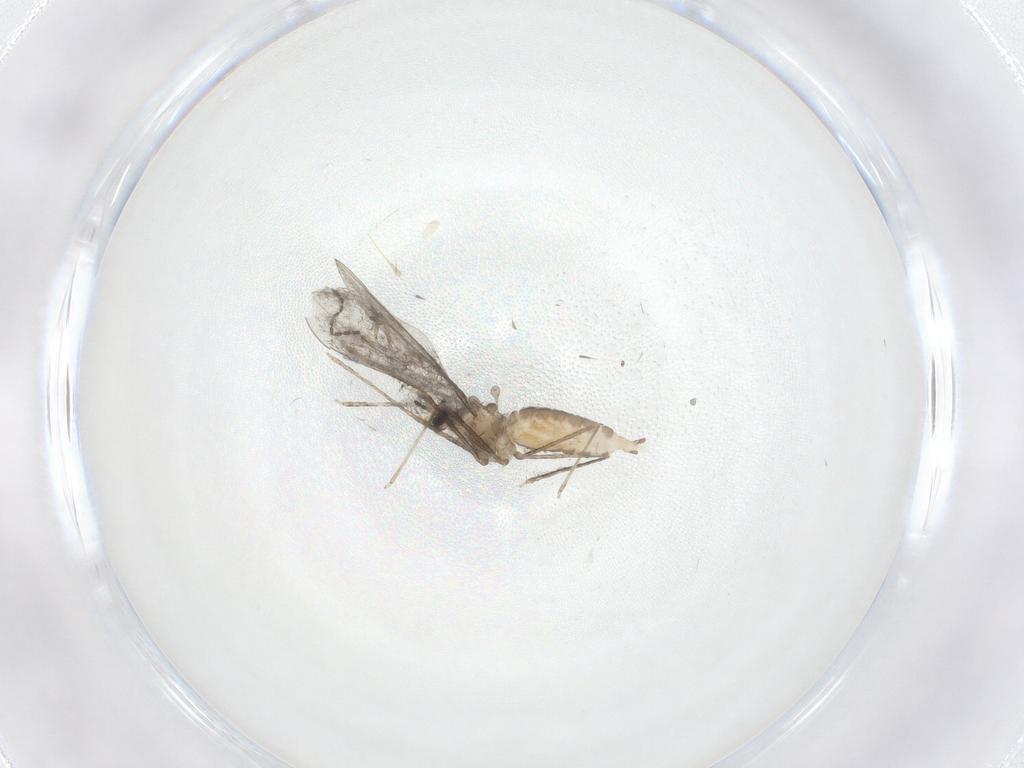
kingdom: Animalia
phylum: Arthropoda
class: Insecta
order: Diptera
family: Cecidomyiidae
